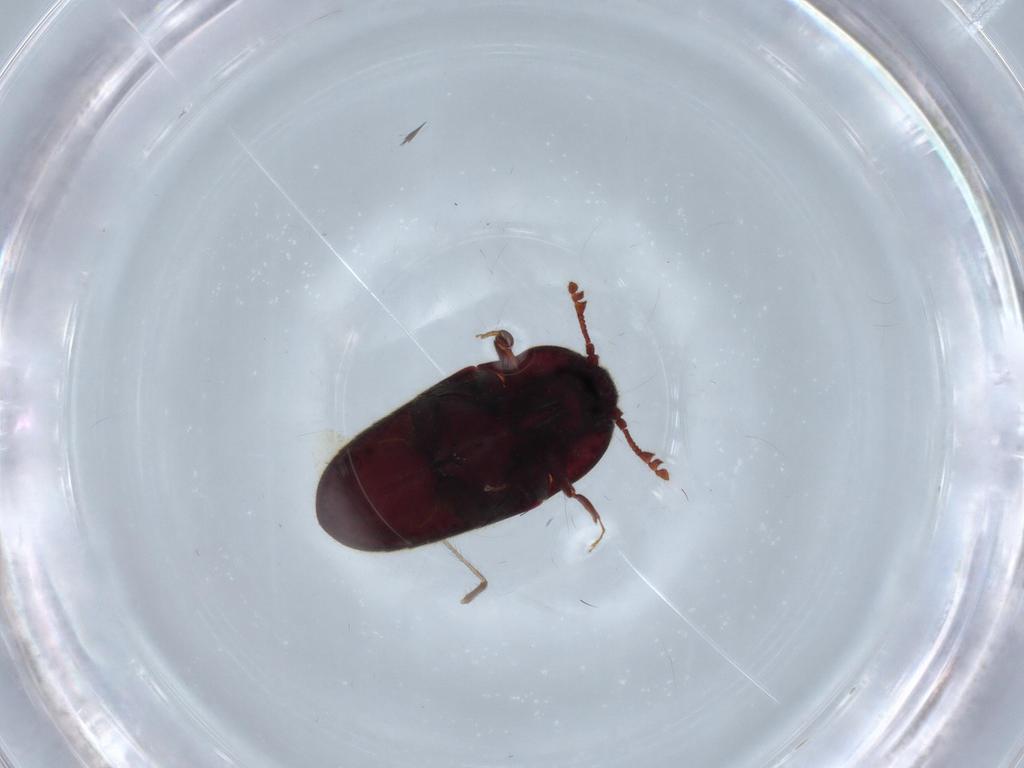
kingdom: Animalia
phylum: Arthropoda
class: Insecta
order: Coleoptera
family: Throscidae
